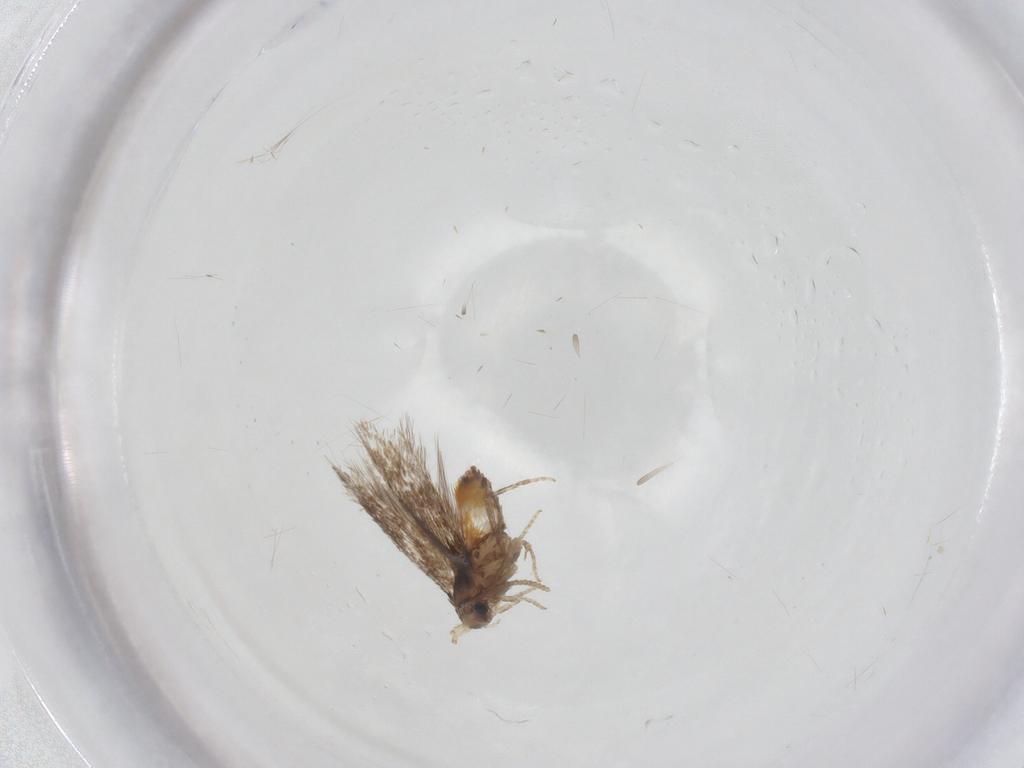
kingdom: Animalia
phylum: Arthropoda
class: Insecta
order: Lepidoptera
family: Nepticulidae
